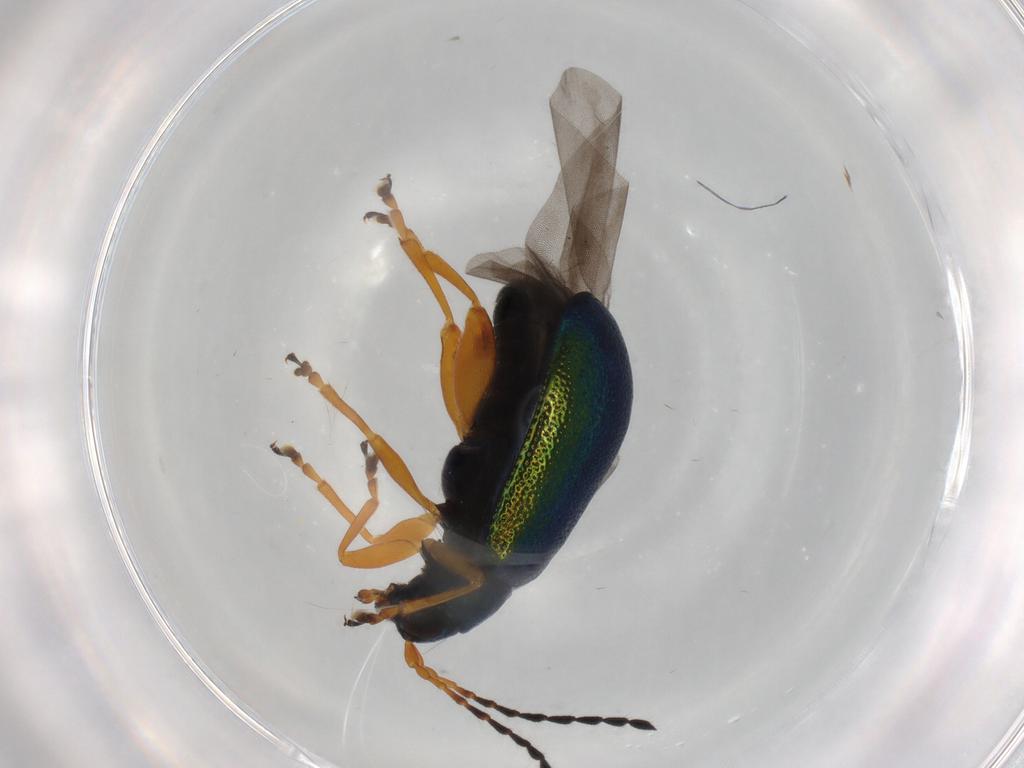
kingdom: Animalia
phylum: Arthropoda
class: Insecta
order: Coleoptera
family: Chrysomelidae
